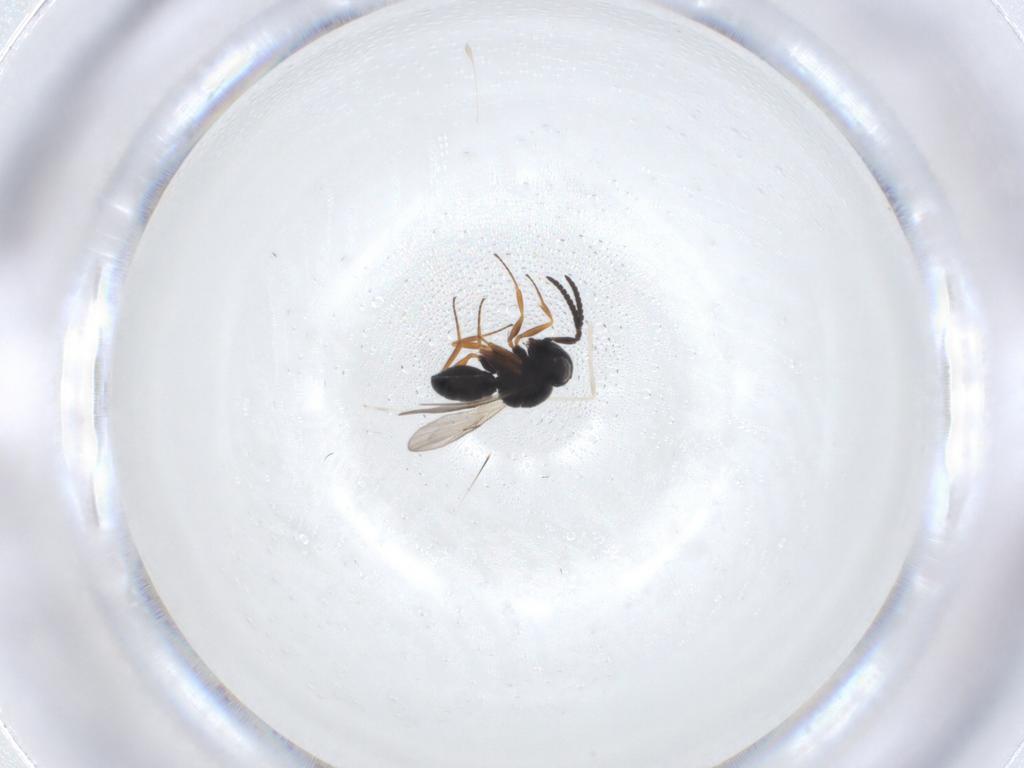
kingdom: Animalia
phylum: Arthropoda
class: Insecta
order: Hymenoptera
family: Scelionidae
